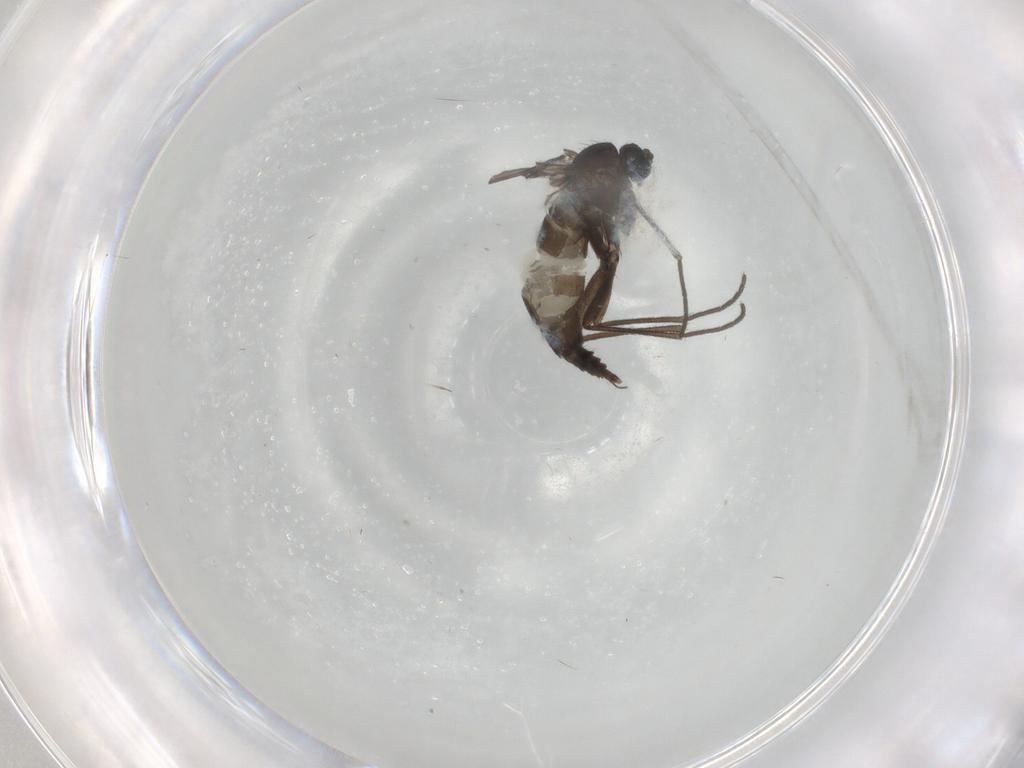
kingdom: Animalia
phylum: Arthropoda
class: Insecta
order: Diptera
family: Sciaridae
